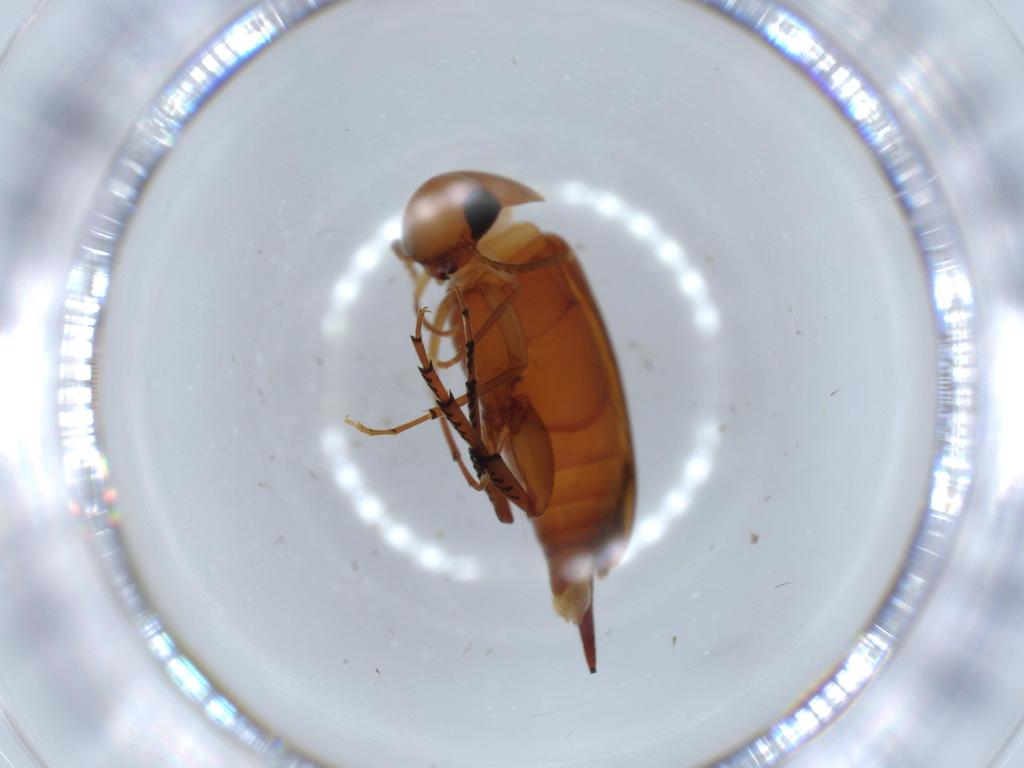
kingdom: Animalia
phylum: Arthropoda
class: Insecta
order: Coleoptera
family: Mordellidae
